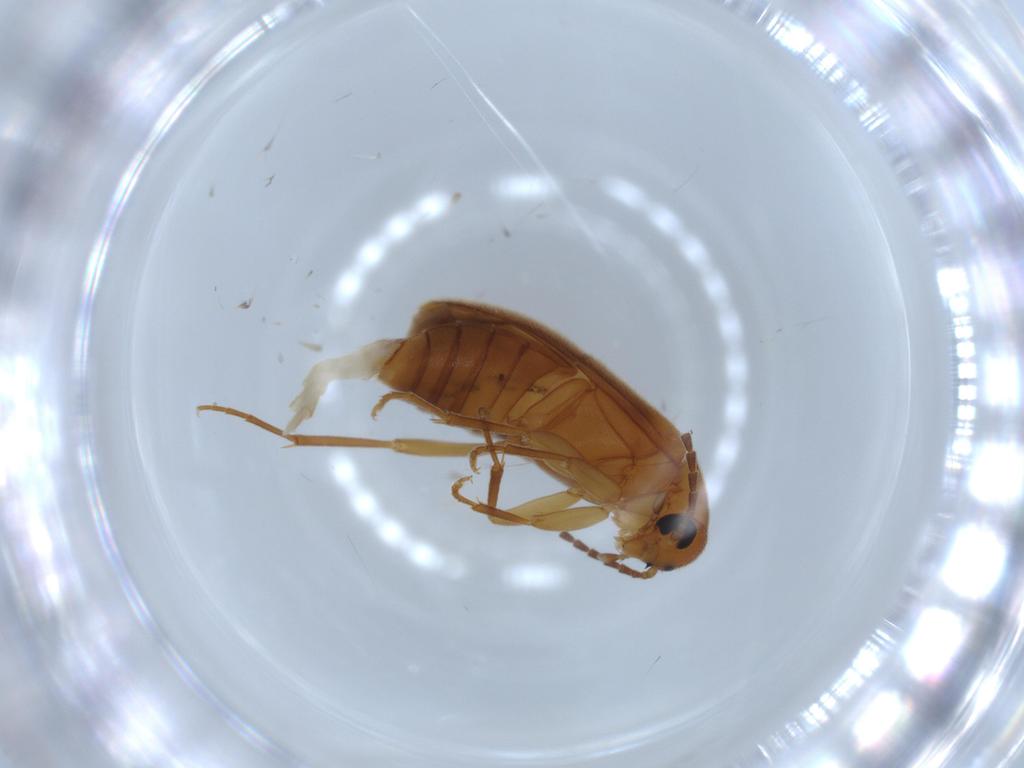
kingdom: Animalia
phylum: Arthropoda
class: Insecta
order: Coleoptera
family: Scraptiidae
